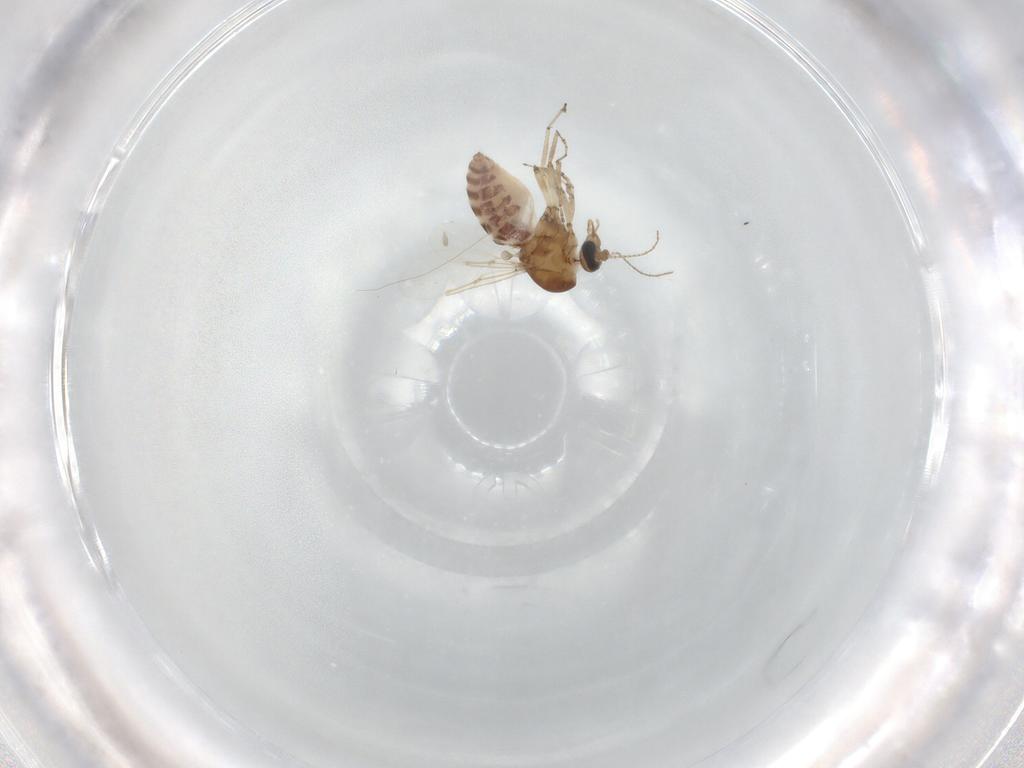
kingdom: Animalia
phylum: Arthropoda
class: Insecta
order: Diptera
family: Ceratopogonidae
